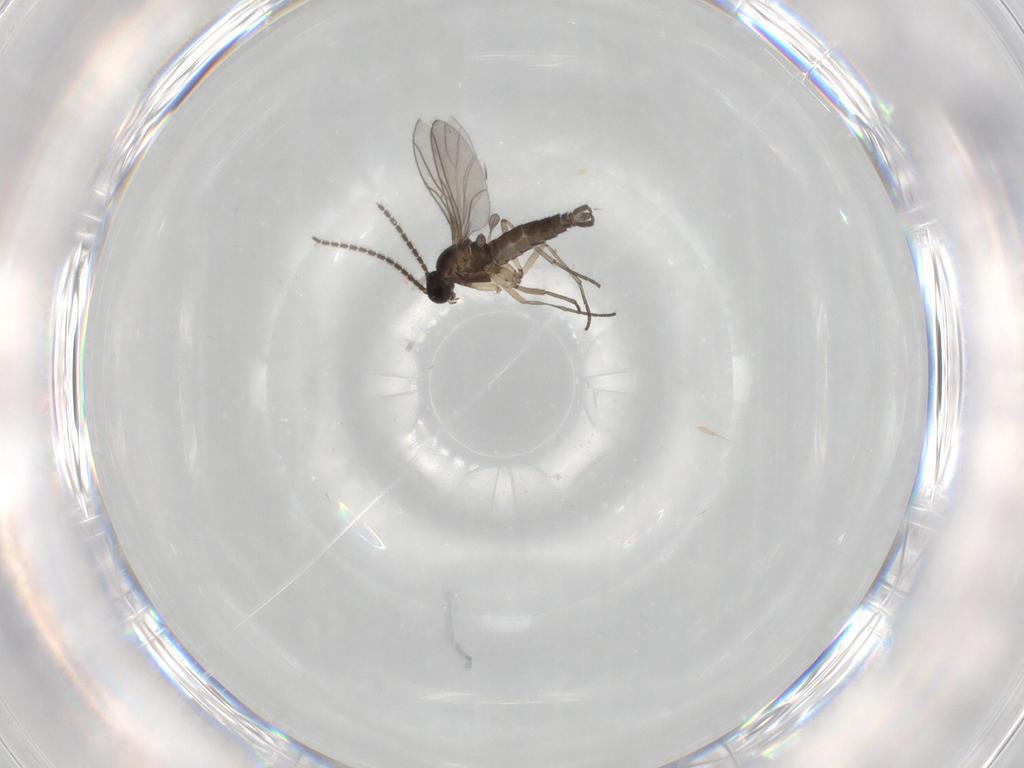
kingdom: Animalia
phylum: Arthropoda
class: Insecta
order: Diptera
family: Sciaridae
